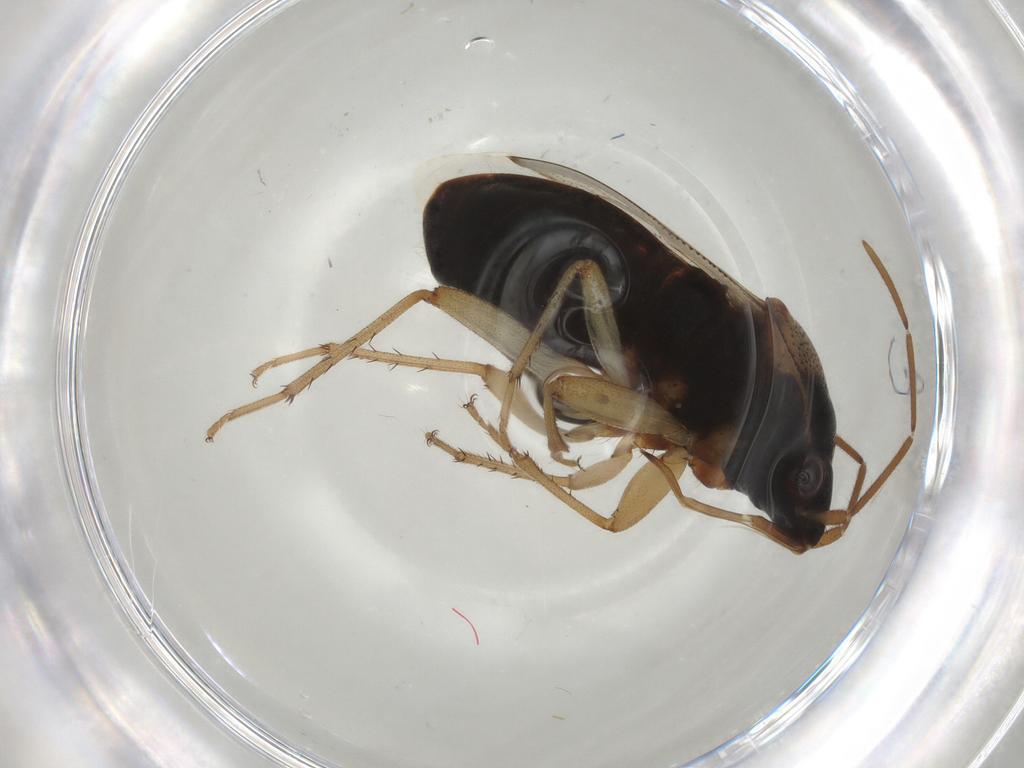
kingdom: Animalia
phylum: Arthropoda
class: Insecta
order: Hemiptera
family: Rhyparochromidae
